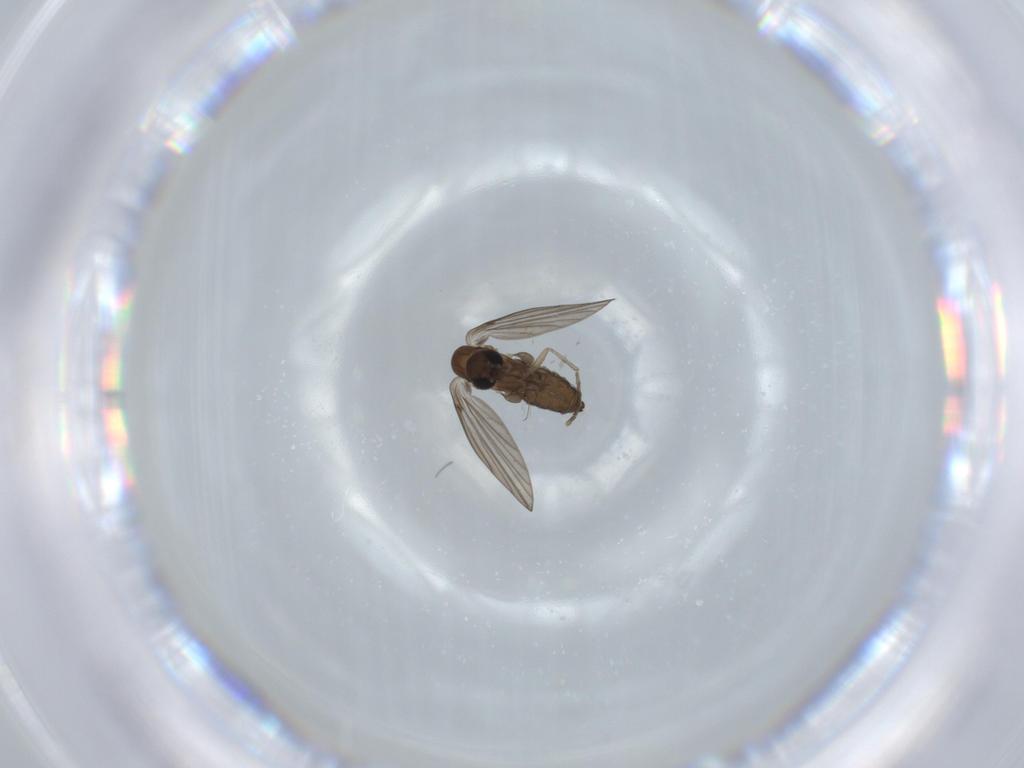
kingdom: Animalia
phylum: Arthropoda
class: Insecta
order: Diptera
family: Psychodidae
